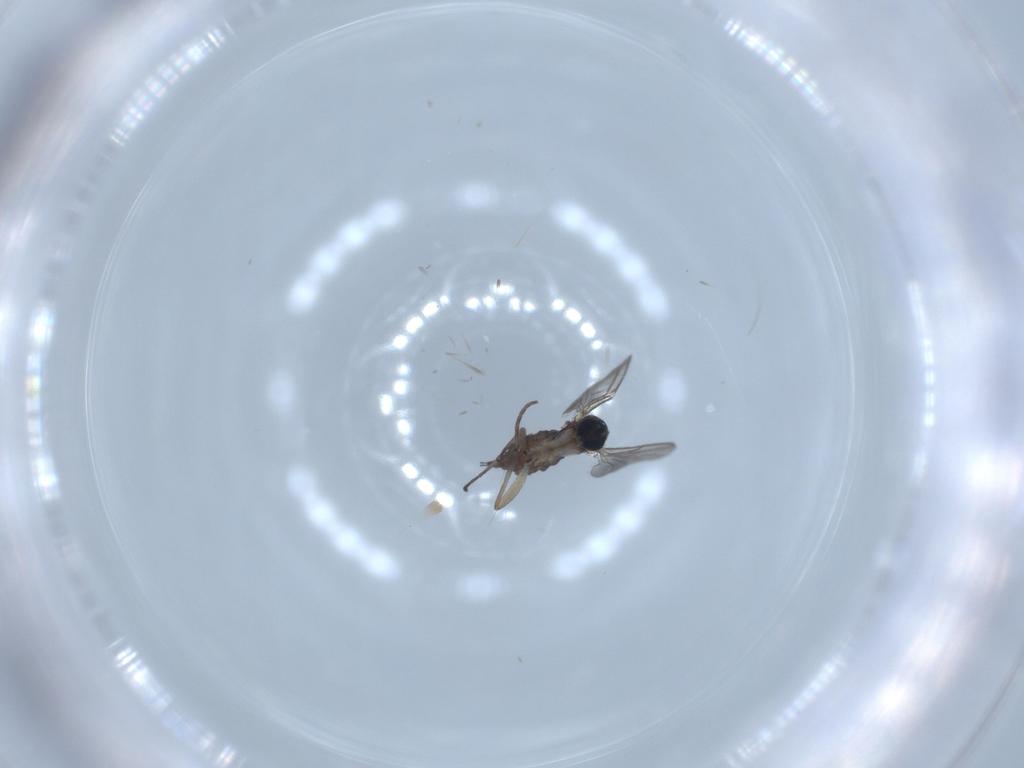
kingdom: Animalia
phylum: Arthropoda
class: Insecta
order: Diptera
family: Sciaridae
